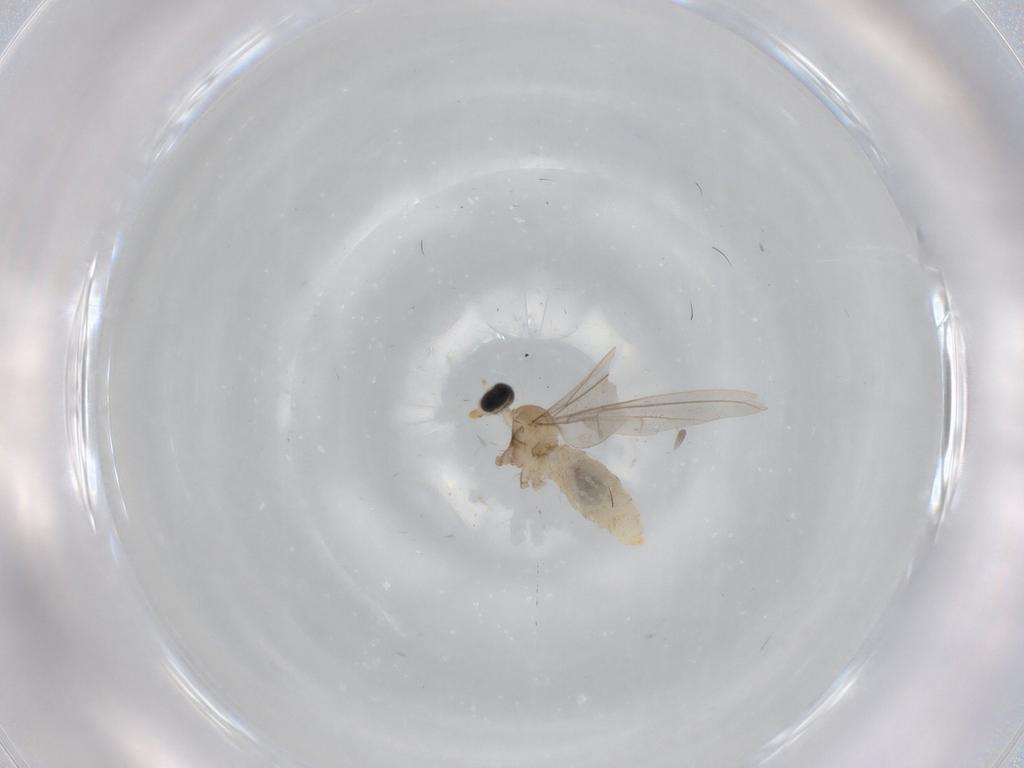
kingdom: Animalia
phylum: Arthropoda
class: Insecta
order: Diptera
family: Cecidomyiidae
